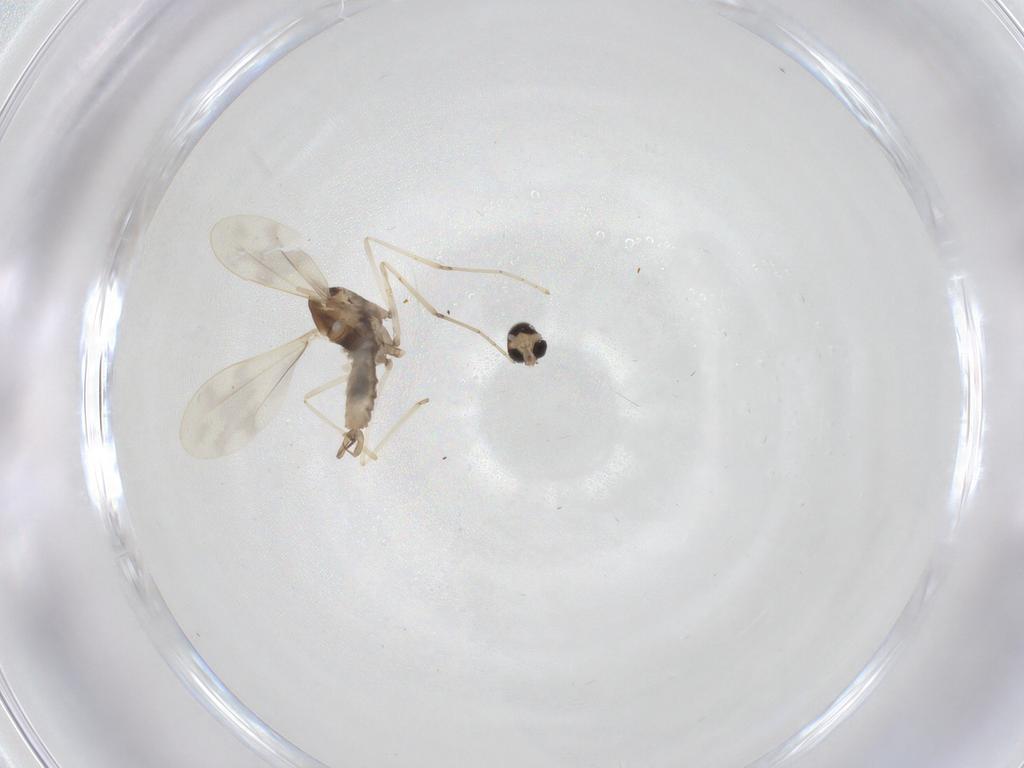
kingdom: Animalia
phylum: Arthropoda
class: Insecta
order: Diptera
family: Cecidomyiidae
